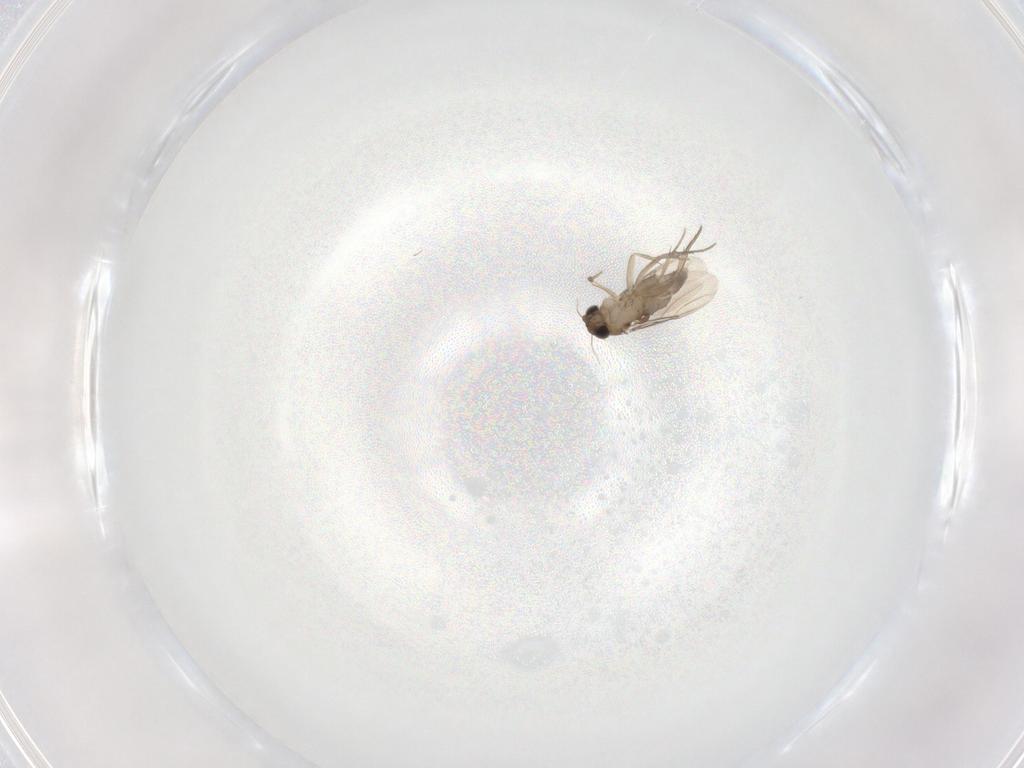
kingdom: Animalia
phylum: Arthropoda
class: Insecta
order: Diptera
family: Phoridae
